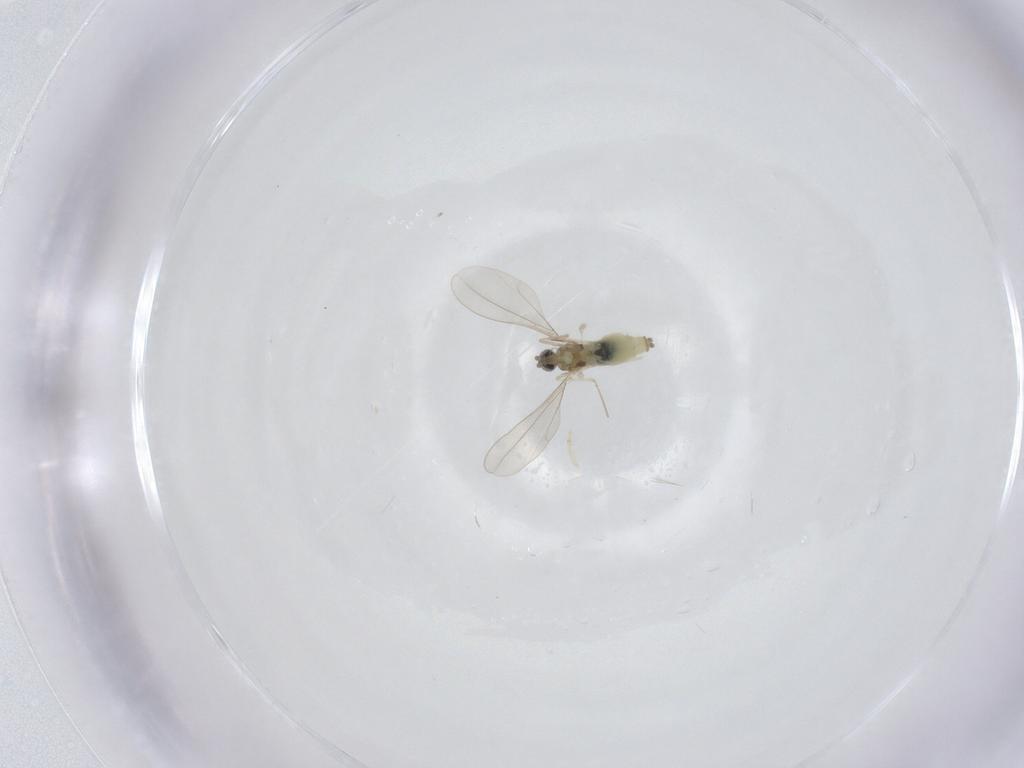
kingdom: Animalia
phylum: Arthropoda
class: Insecta
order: Diptera
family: Cecidomyiidae
